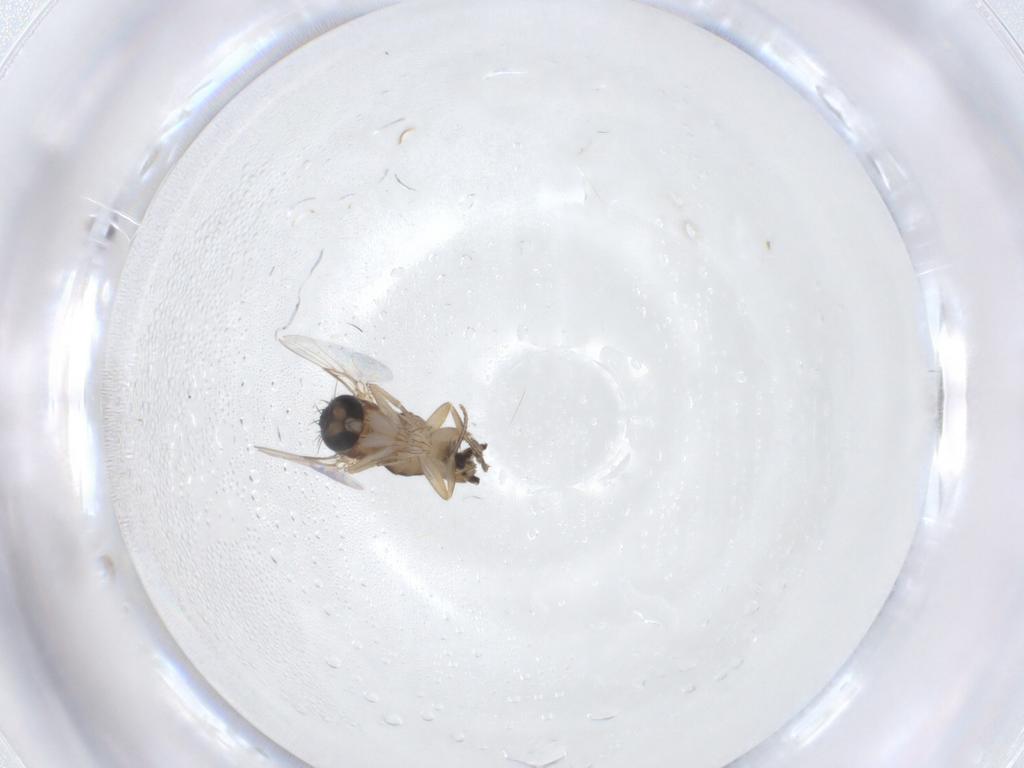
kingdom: Animalia
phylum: Arthropoda
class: Insecta
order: Diptera
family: Phoridae
